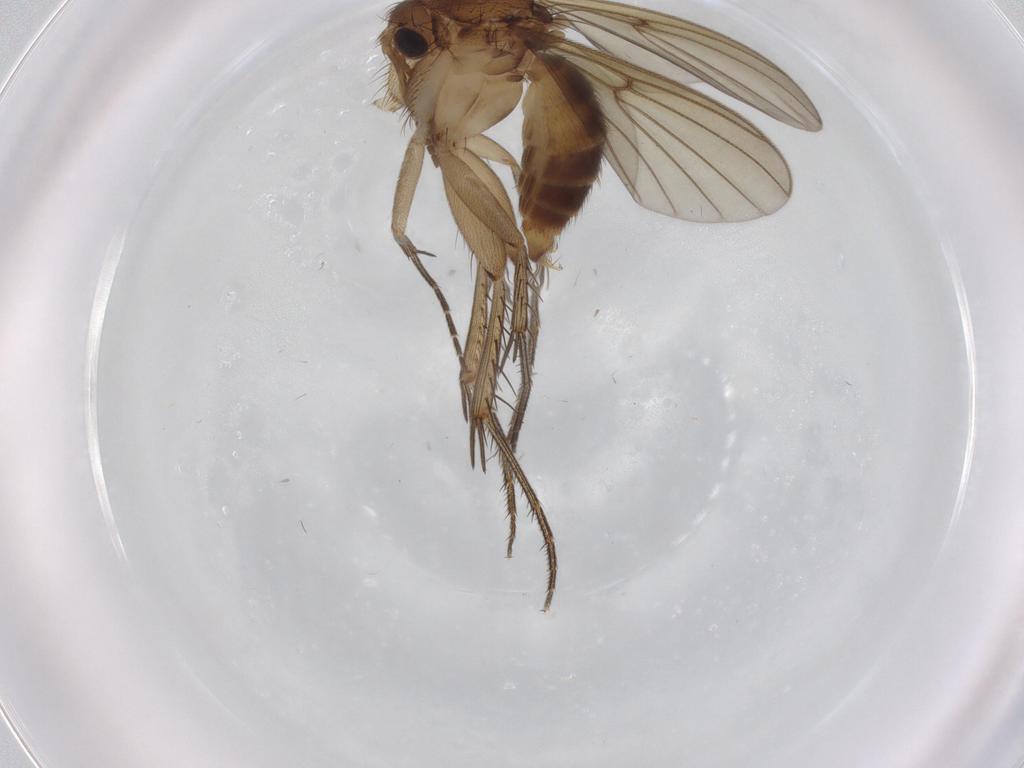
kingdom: Animalia
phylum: Arthropoda
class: Insecta
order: Diptera
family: Mycetophilidae
